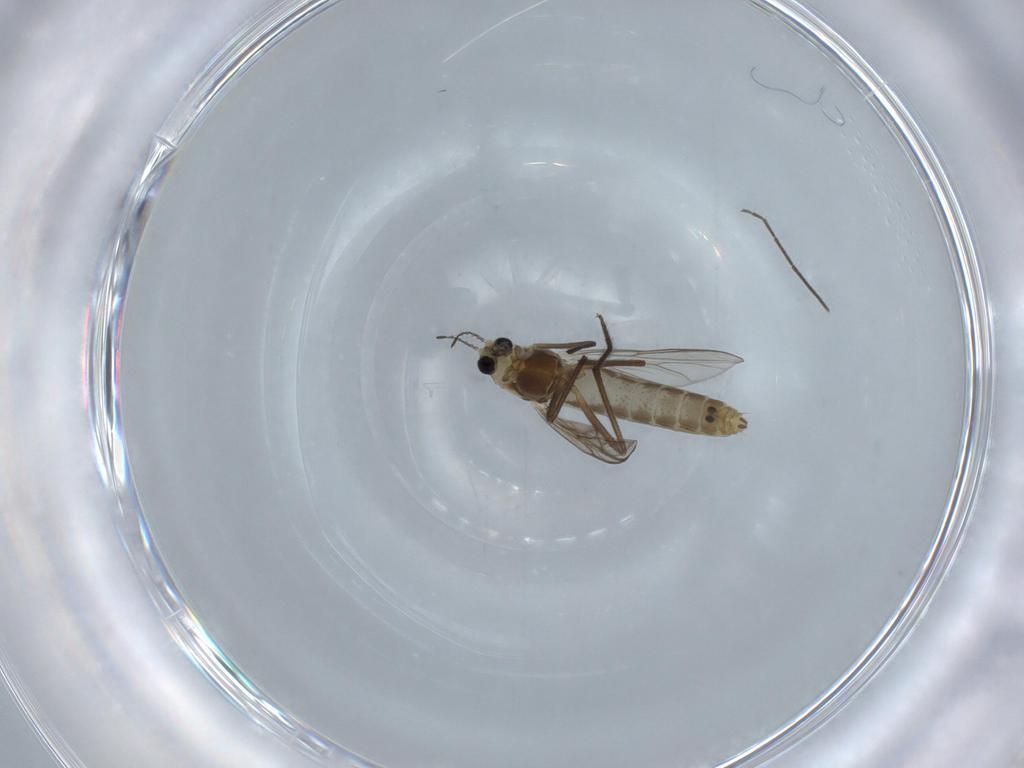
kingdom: Animalia
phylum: Arthropoda
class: Insecta
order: Diptera
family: Chironomidae
